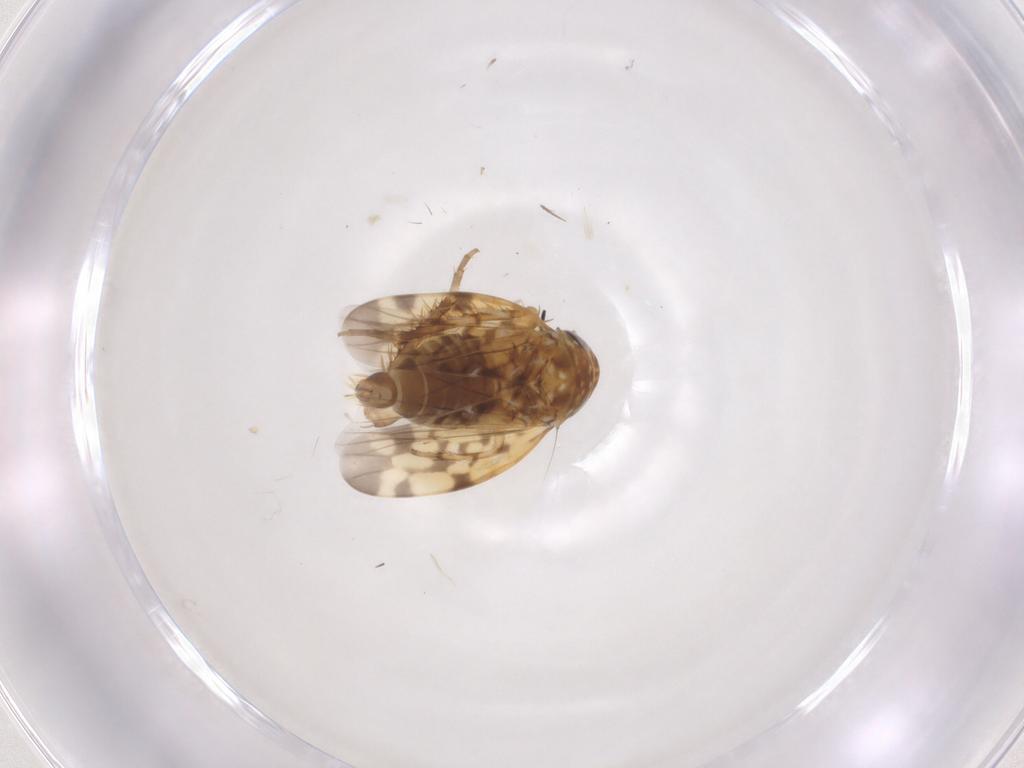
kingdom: Animalia
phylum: Arthropoda
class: Insecta
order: Hemiptera
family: Cicadellidae
